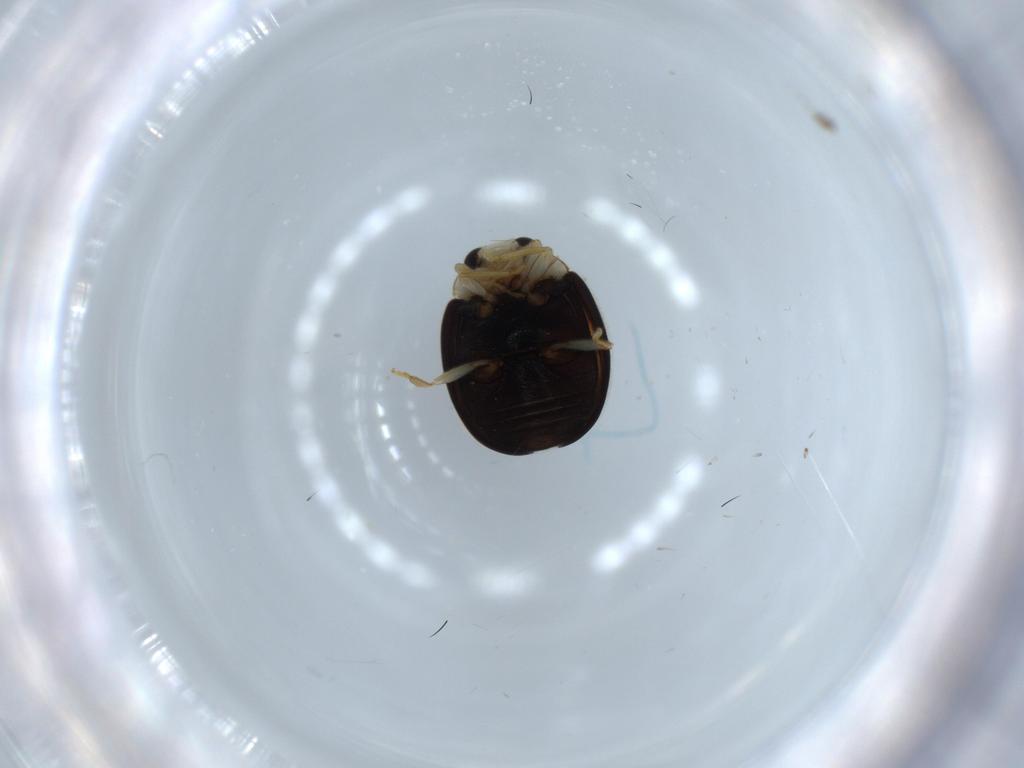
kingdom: Animalia
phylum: Arthropoda
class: Insecta
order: Coleoptera
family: Coccinellidae
